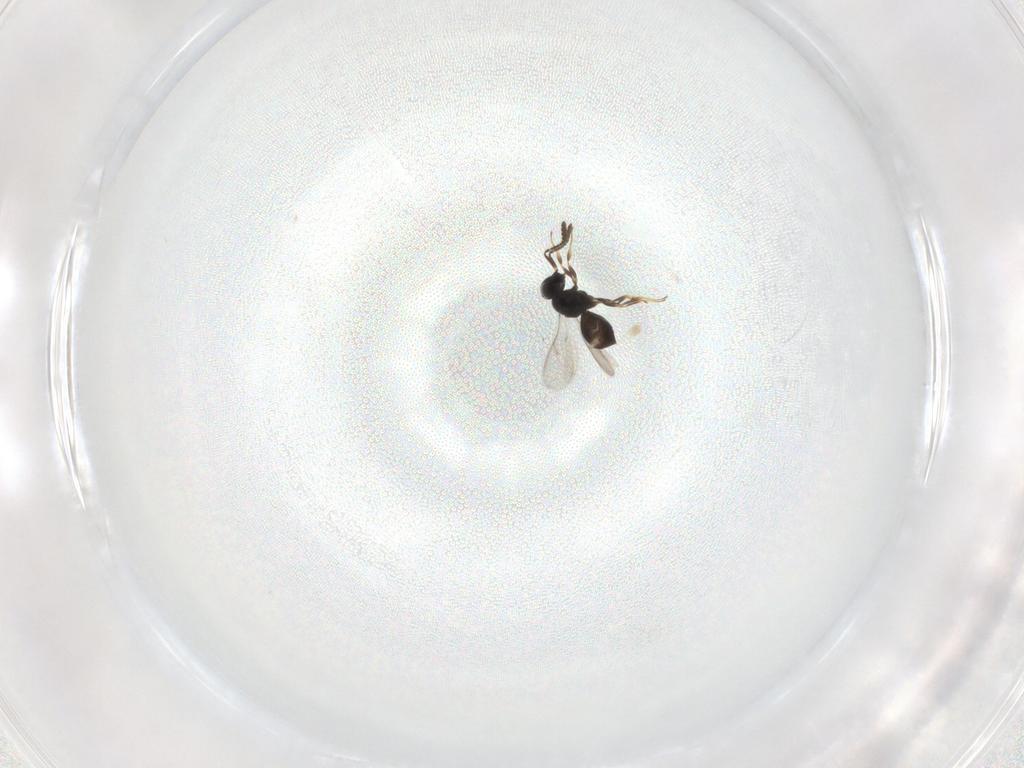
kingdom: Animalia
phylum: Arthropoda
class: Insecta
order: Hymenoptera
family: Scelionidae
